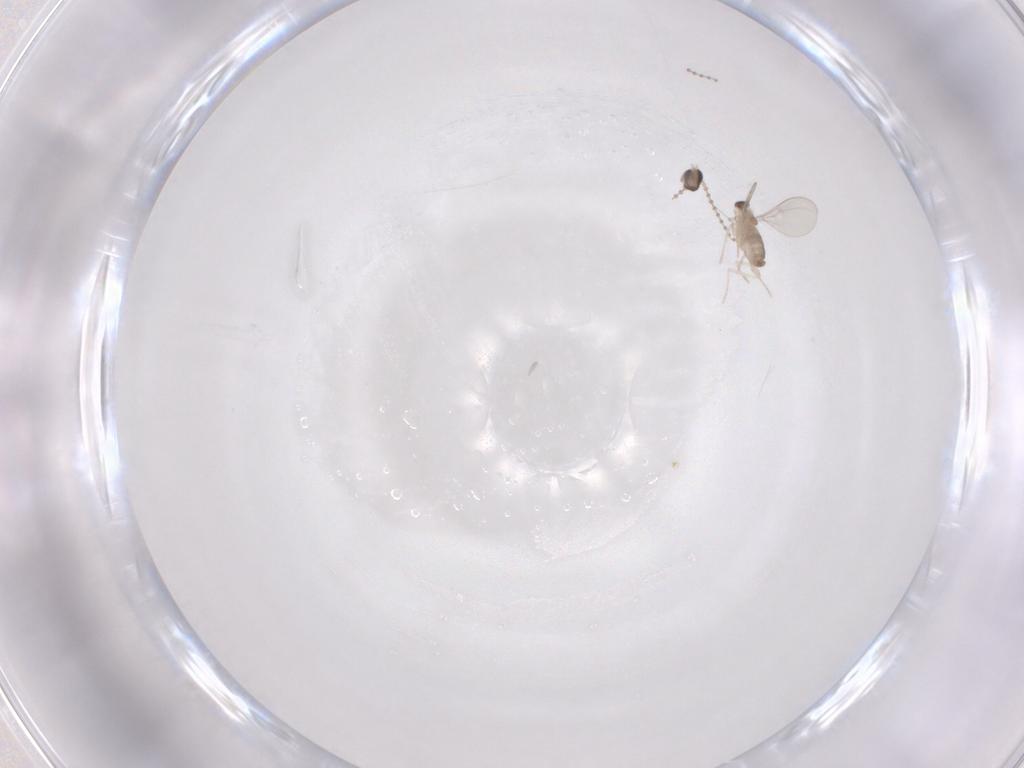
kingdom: Animalia
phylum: Arthropoda
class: Insecta
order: Diptera
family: Cecidomyiidae
